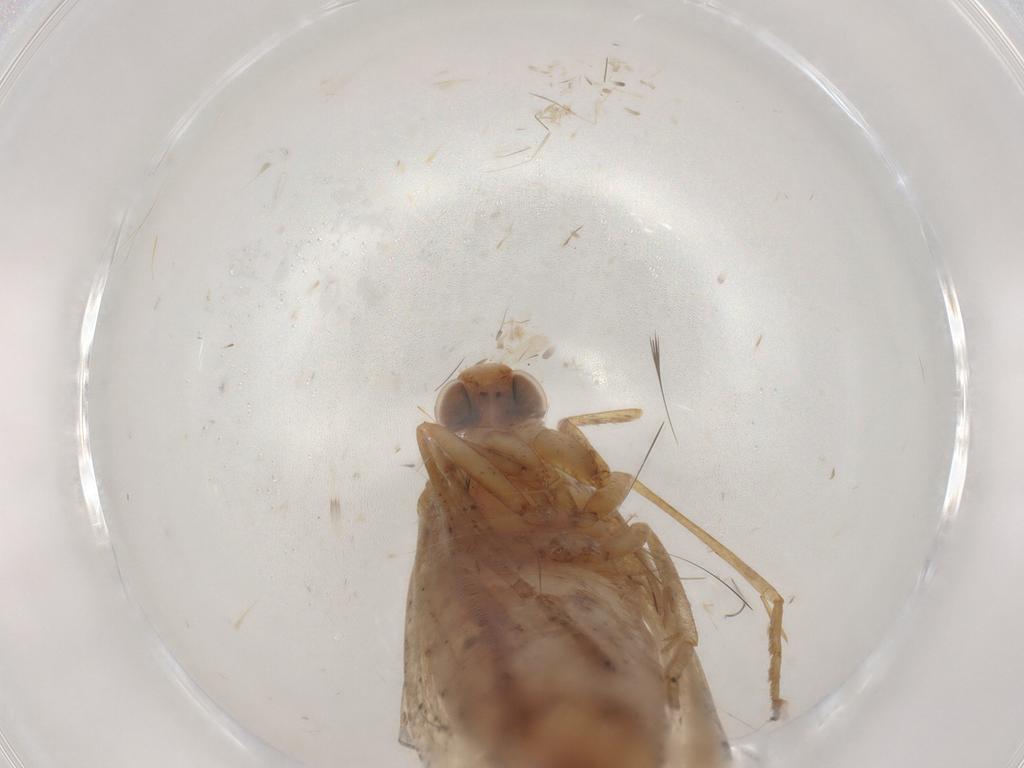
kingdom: Animalia
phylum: Arthropoda
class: Insecta
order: Lepidoptera
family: Pyralidae
